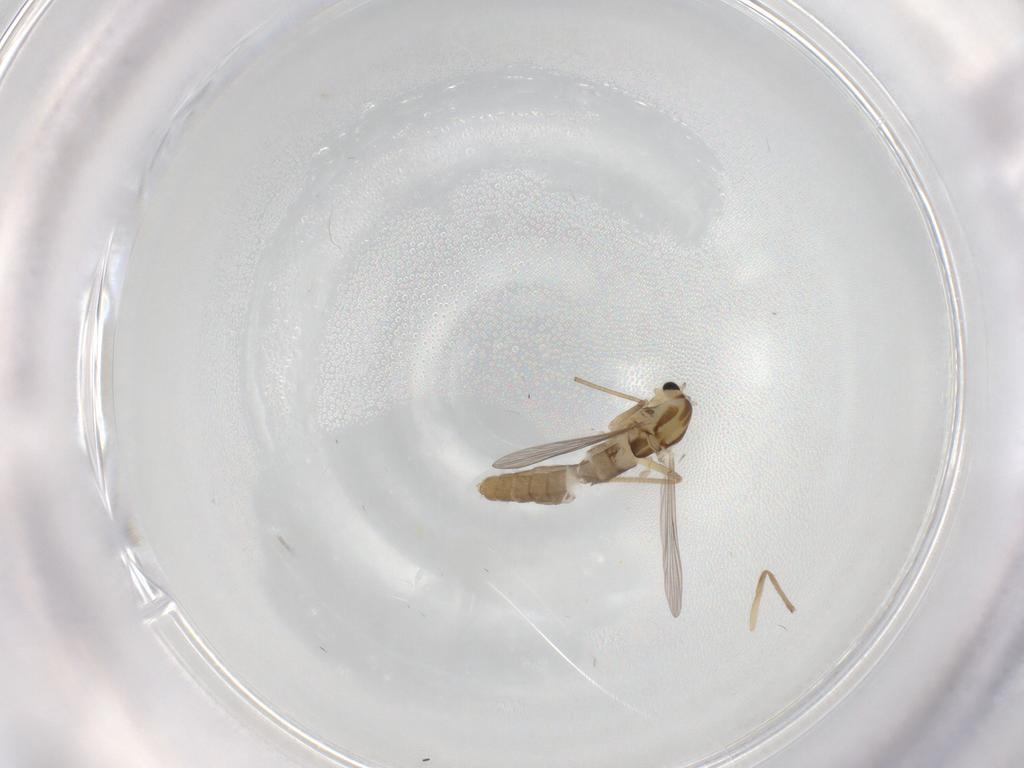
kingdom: Animalia
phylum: Arthropoda
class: Insecta
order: Diptera
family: Chironomidae
